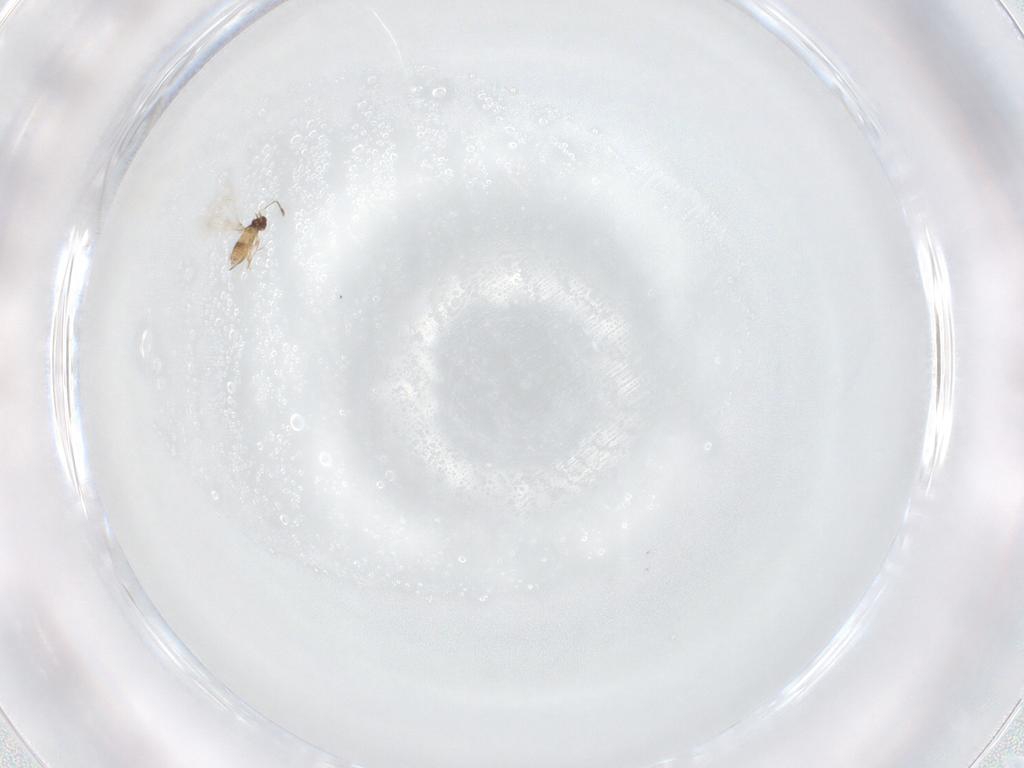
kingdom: Animalia
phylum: Arthropoda
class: Insecta
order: Hymenoptera
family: Mymaridae
